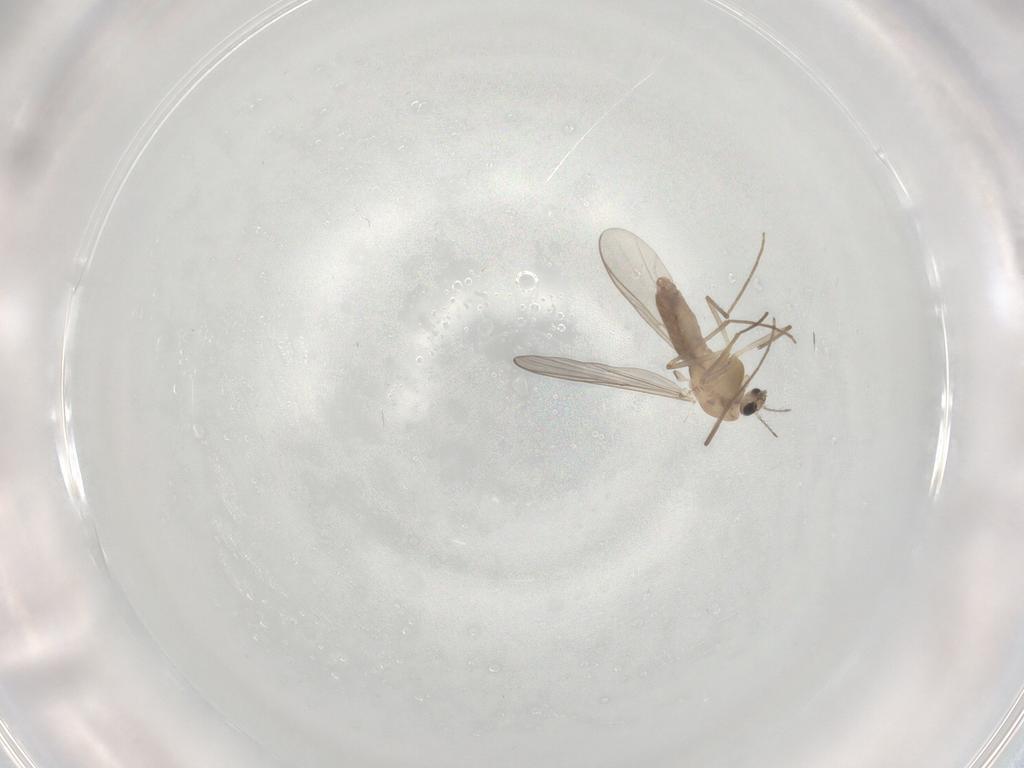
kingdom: Animalia
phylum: Arthropoda
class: Insecta
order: Diptera
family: Chironomidae
